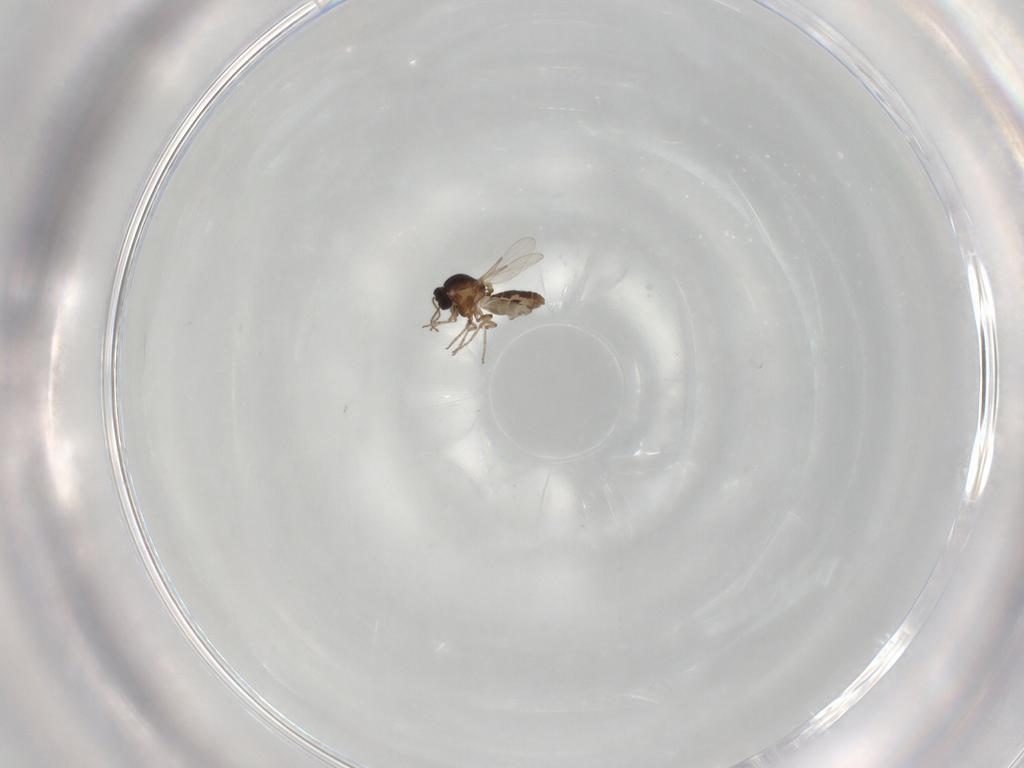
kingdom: Animalia
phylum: Arthropoda
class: Insecta
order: Diptera
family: Ceratopogonidae
